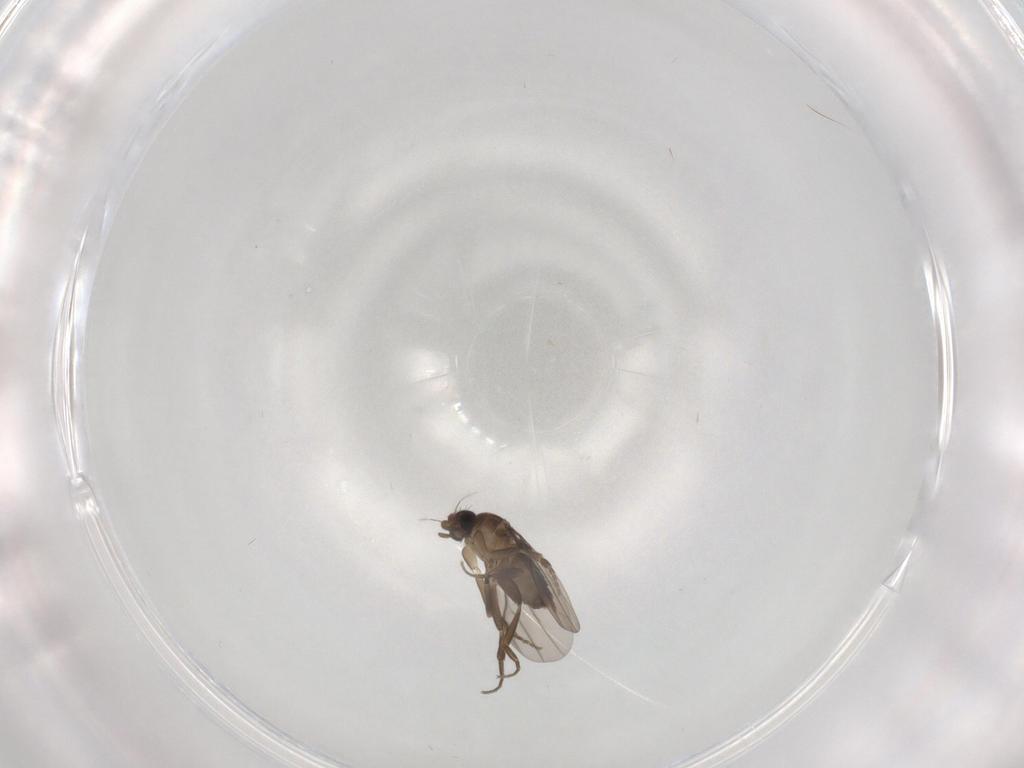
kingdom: Animalia
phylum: Arthropoda
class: Insecta
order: Diptera
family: Phoridae
